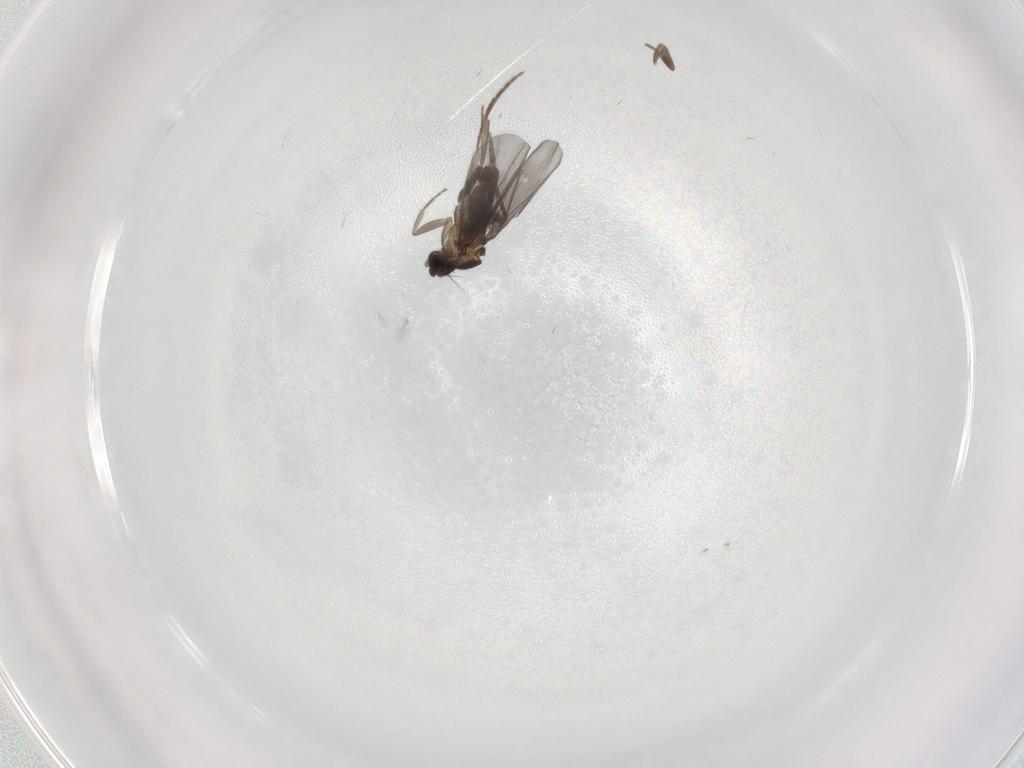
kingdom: Animalia
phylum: Arthropoda
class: Insecta
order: Diptera
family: Phoridae
